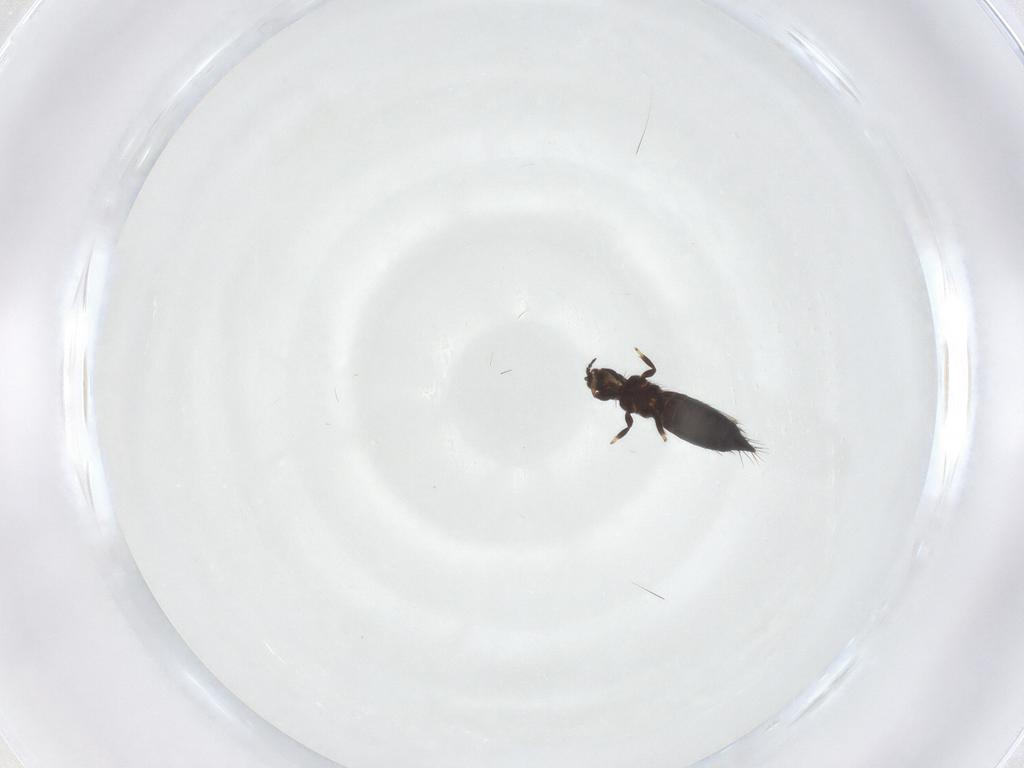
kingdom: Animalia
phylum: Arthropoda
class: Insecta
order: Thysanoptera
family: Thripidae
